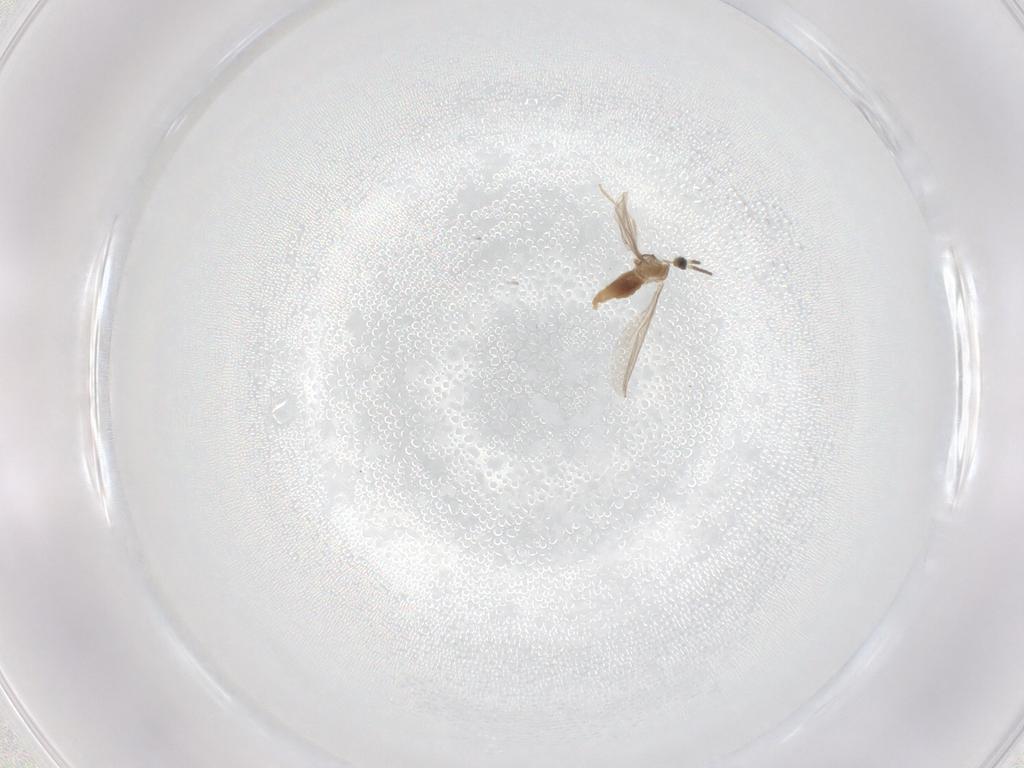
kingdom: Animalia
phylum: Arthropoda
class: Insecta
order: Diptera
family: Cecidomyiidae
